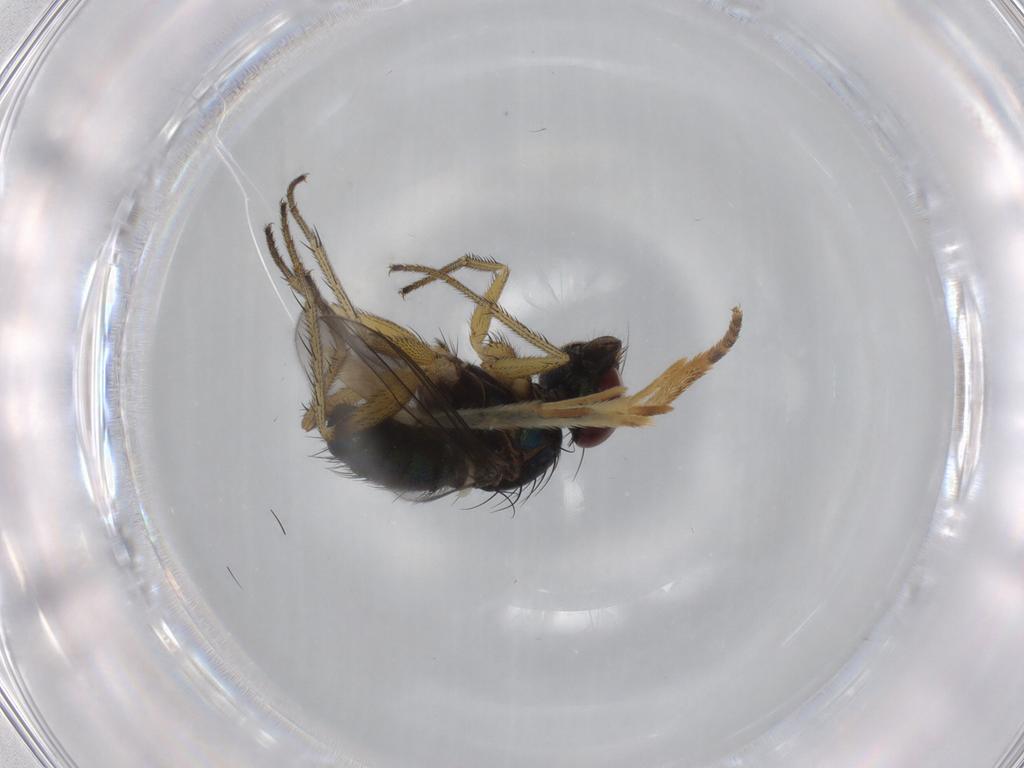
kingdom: Animalia
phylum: Arthropoda
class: Insecta
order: Diptera
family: Dolichopodidae
